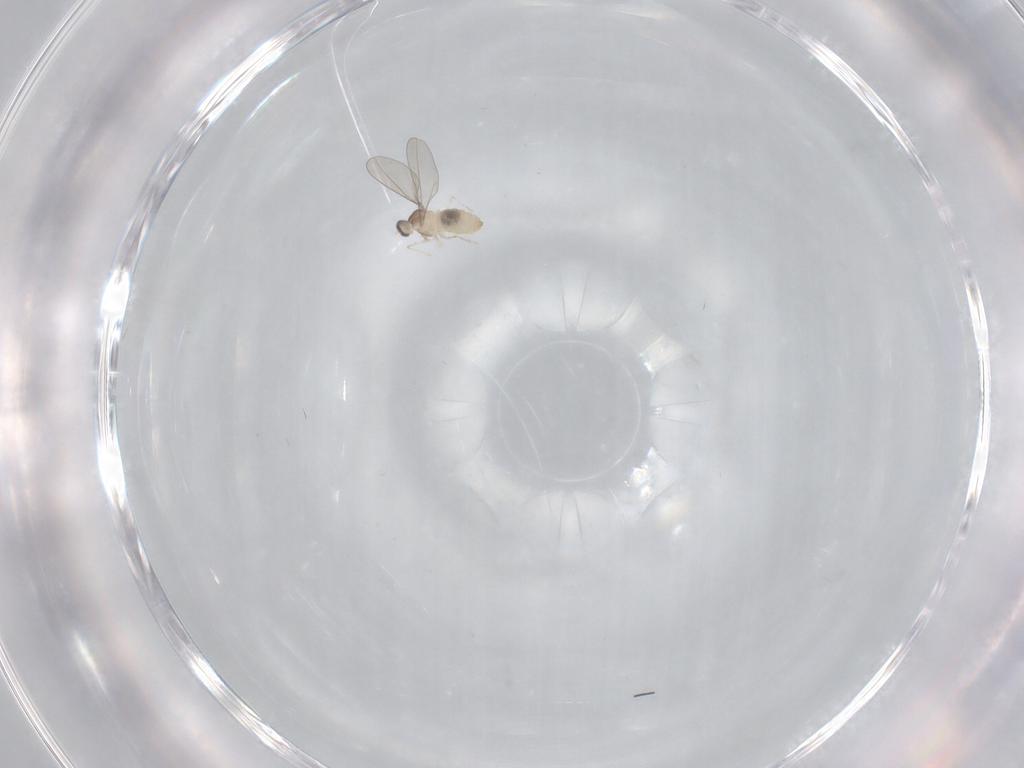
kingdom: Animalia
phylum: Arthropoda
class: Insecta
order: Diptera
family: Cecidomyiidae
